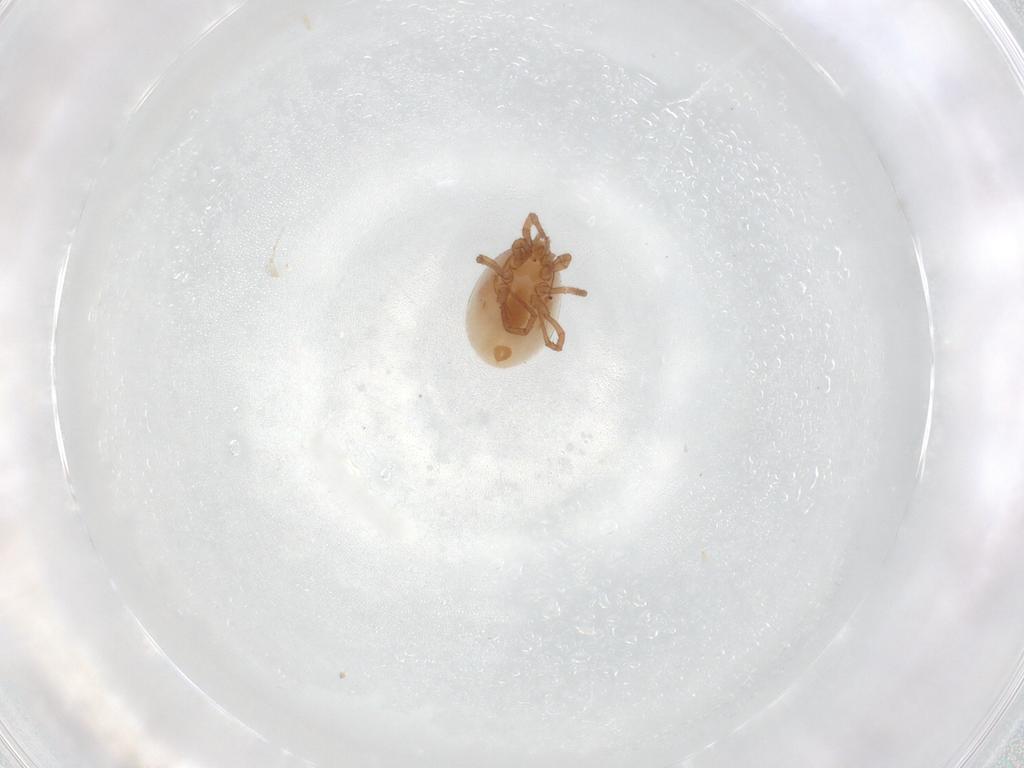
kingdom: Animalia
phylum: Arthropoda
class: Arachnida
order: Mesostigmata
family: Parasitidae
